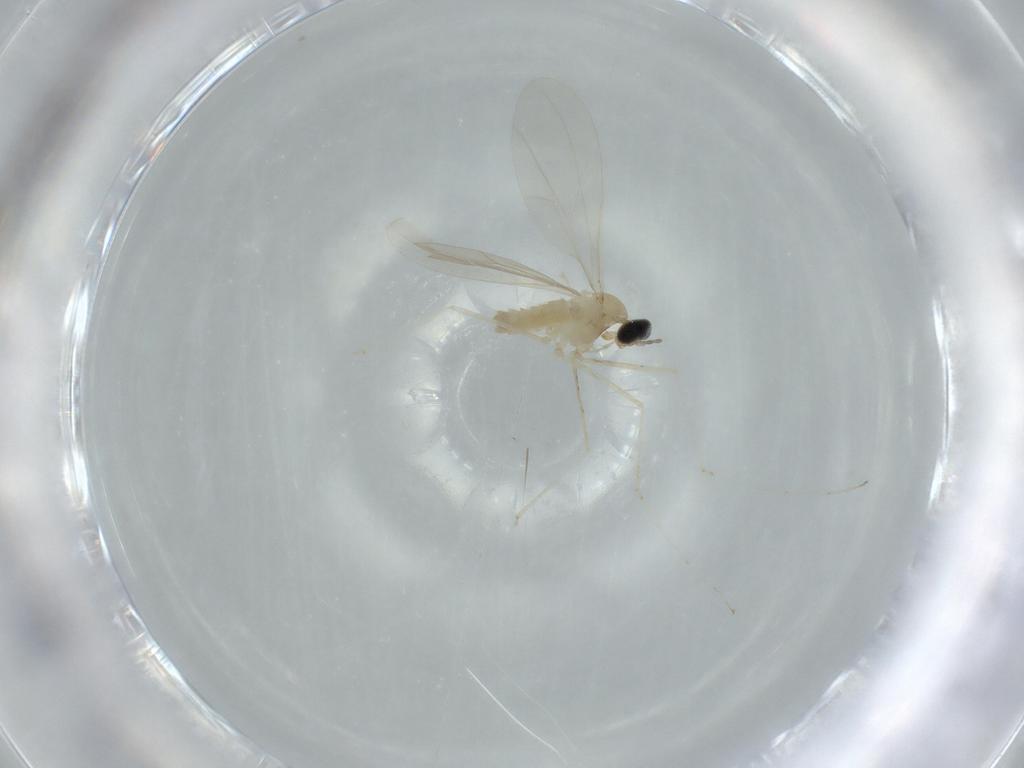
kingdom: Animalia
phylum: Arthropoda
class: Insecta
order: Diptera
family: Cecidomyiidae
